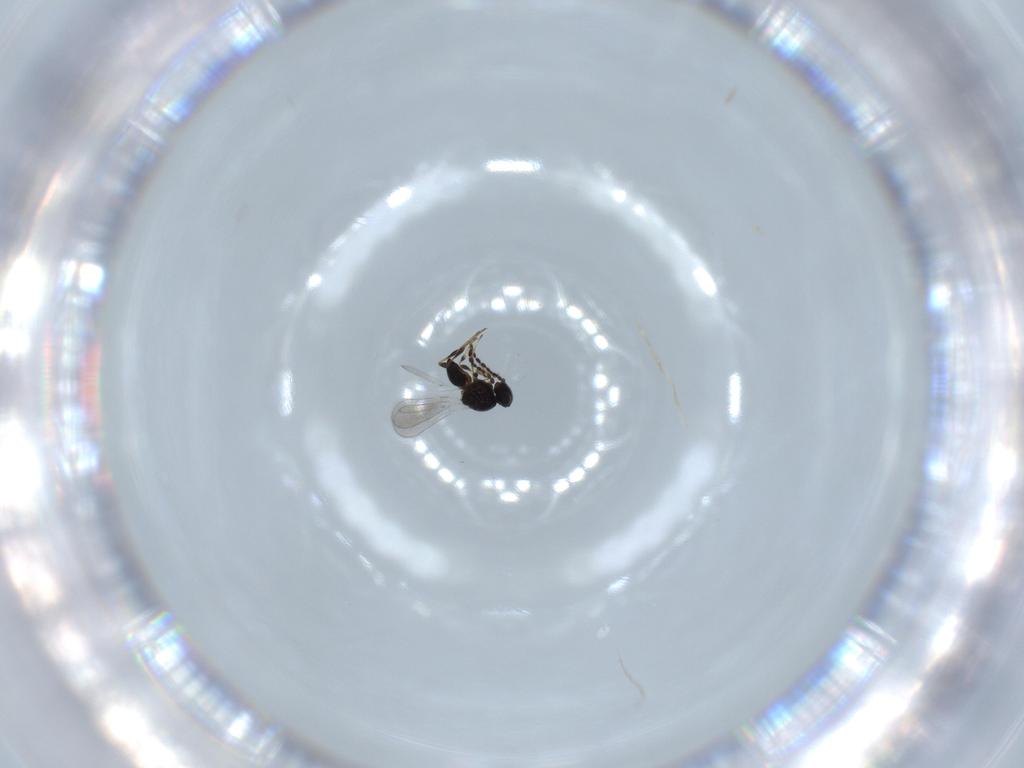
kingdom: Animalia
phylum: Arthropoda
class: Insecta
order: Hymenoptera
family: Platygastridae
